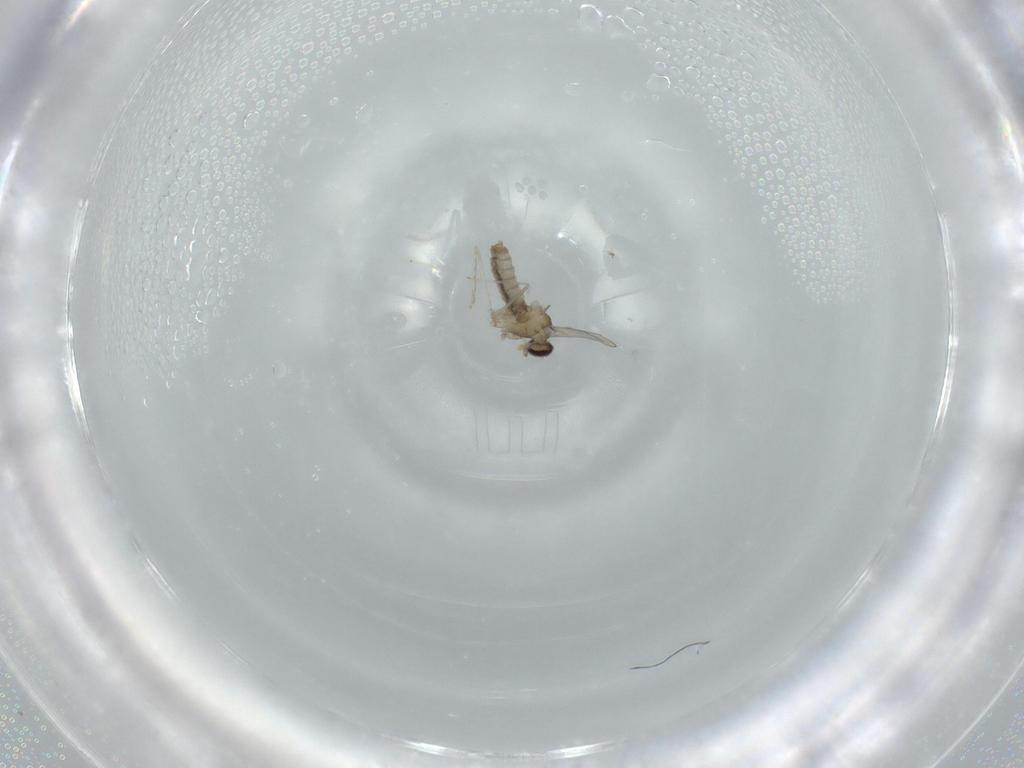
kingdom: Animalia
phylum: Arthropoda
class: Insecta
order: Diptera
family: Cecidomyiidae
